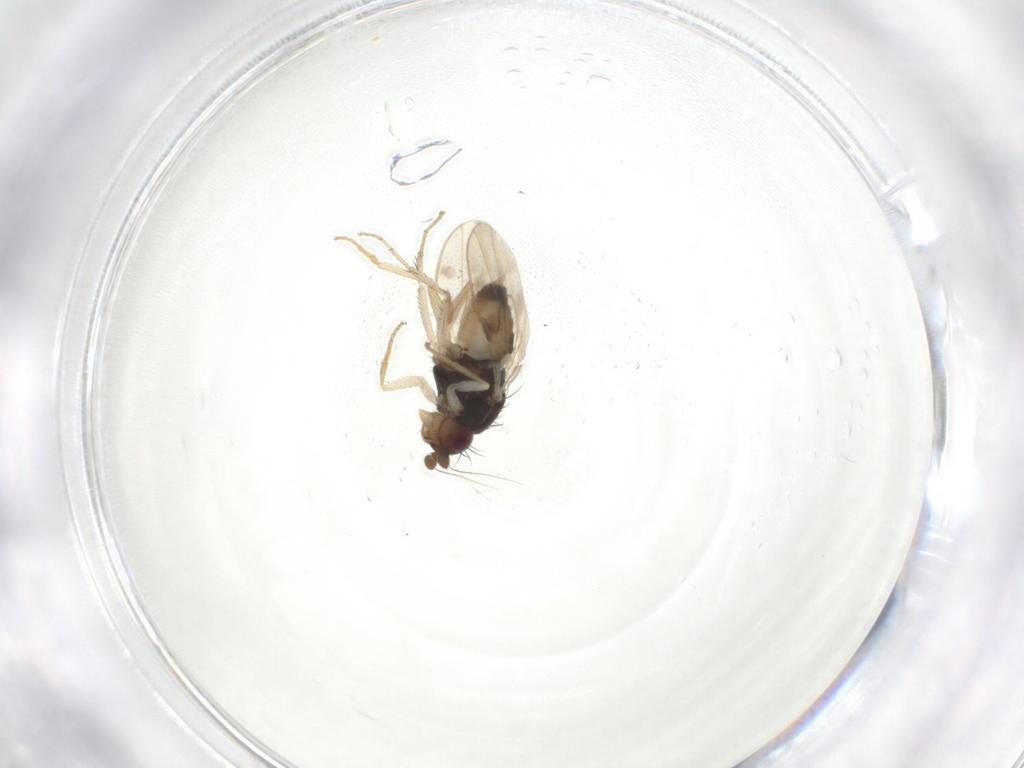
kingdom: Animalia
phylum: Arthropoda
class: Insecta
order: Diptera
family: Sphaeroceridae
